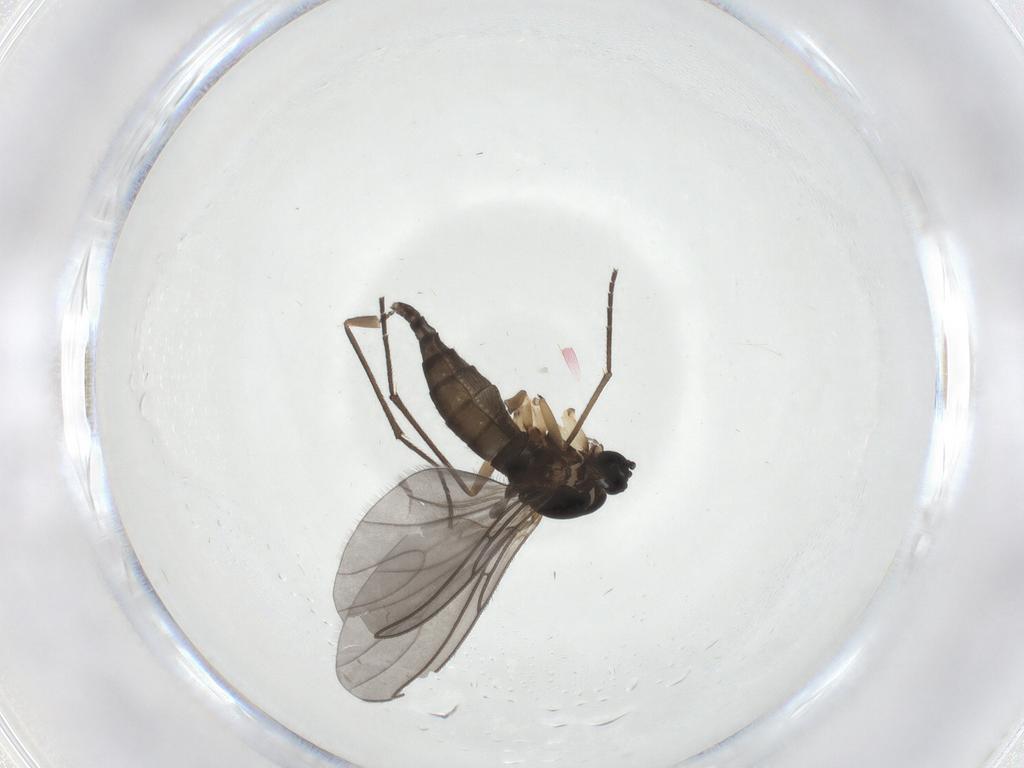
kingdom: Animalia
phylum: Arthropoda
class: Insecta
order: Diptera
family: Sciaridae
